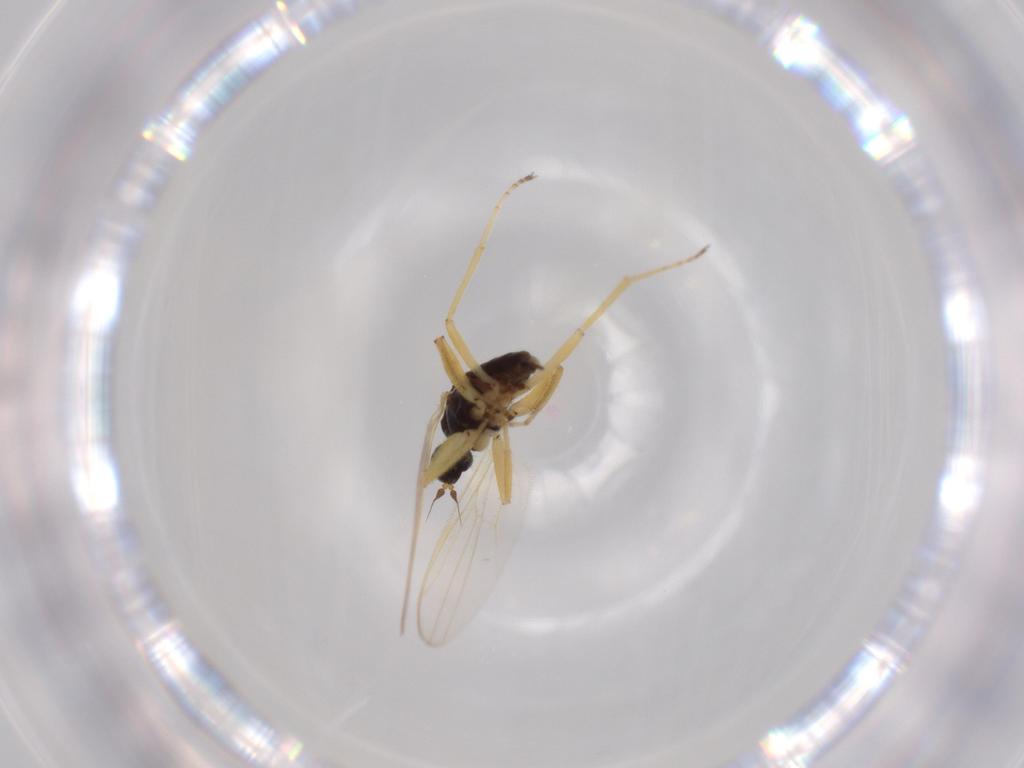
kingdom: Animalia
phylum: Arthropoda
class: Insecta
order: Diptera
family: Hybotidae
